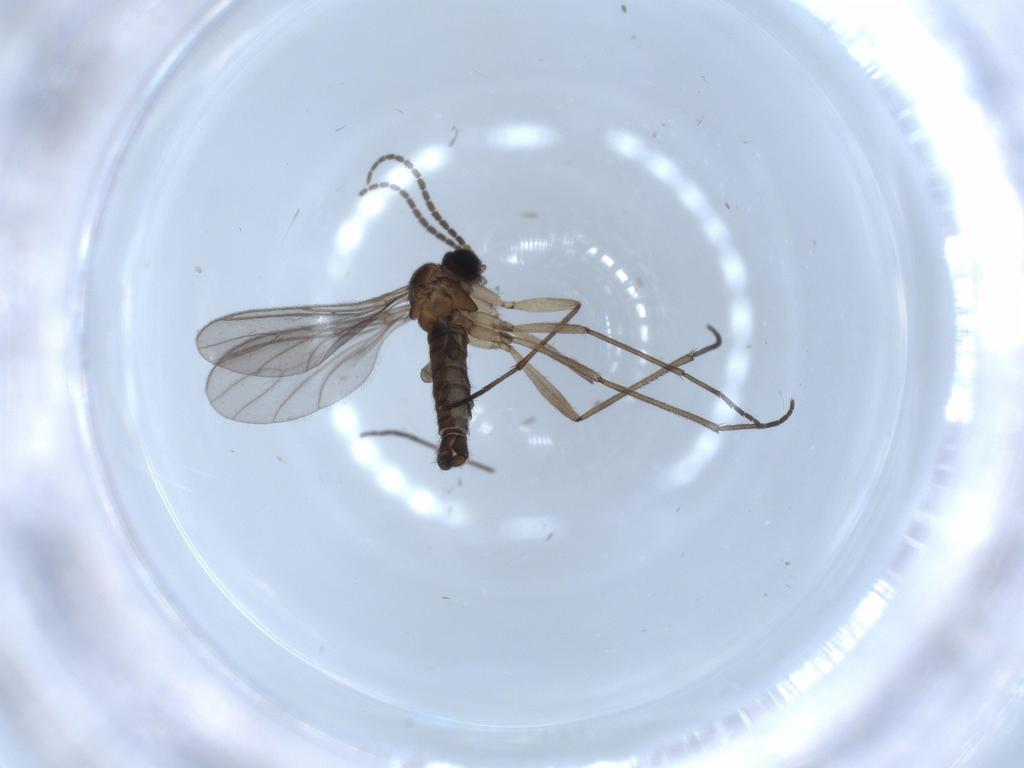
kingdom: Animalia
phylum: Arthropoda
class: Insecta
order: Diptera
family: Sciaridae
